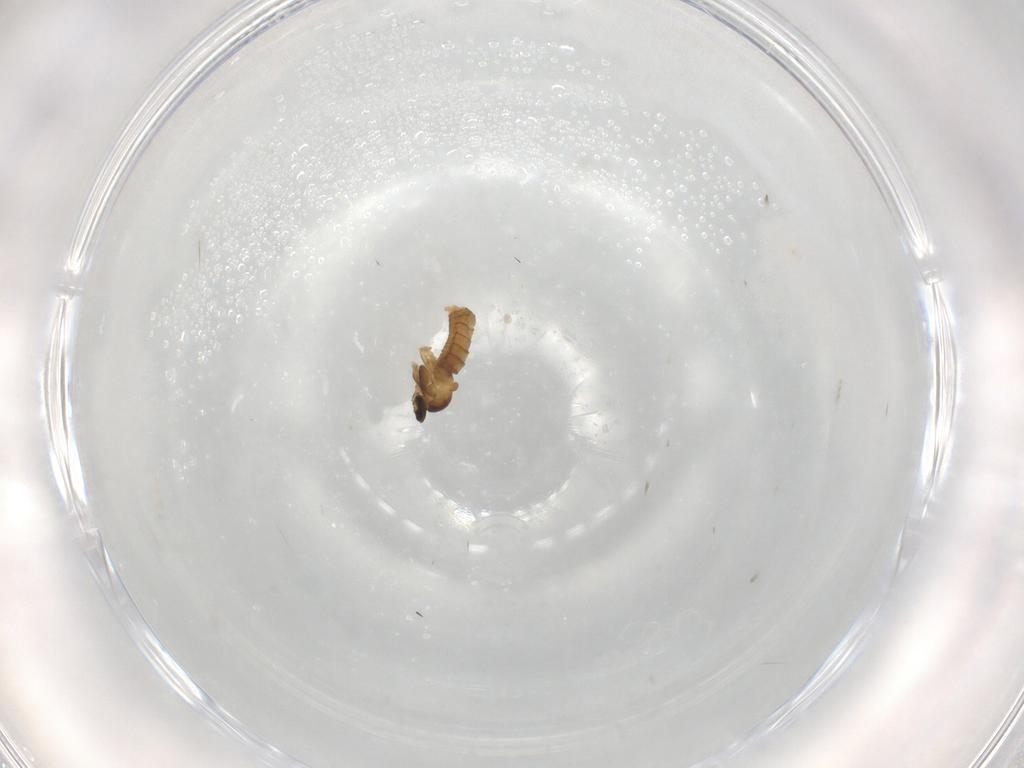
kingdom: Animalia
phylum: Arthropoda
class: Insecta
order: Diptera
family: Cecidomyiidae
